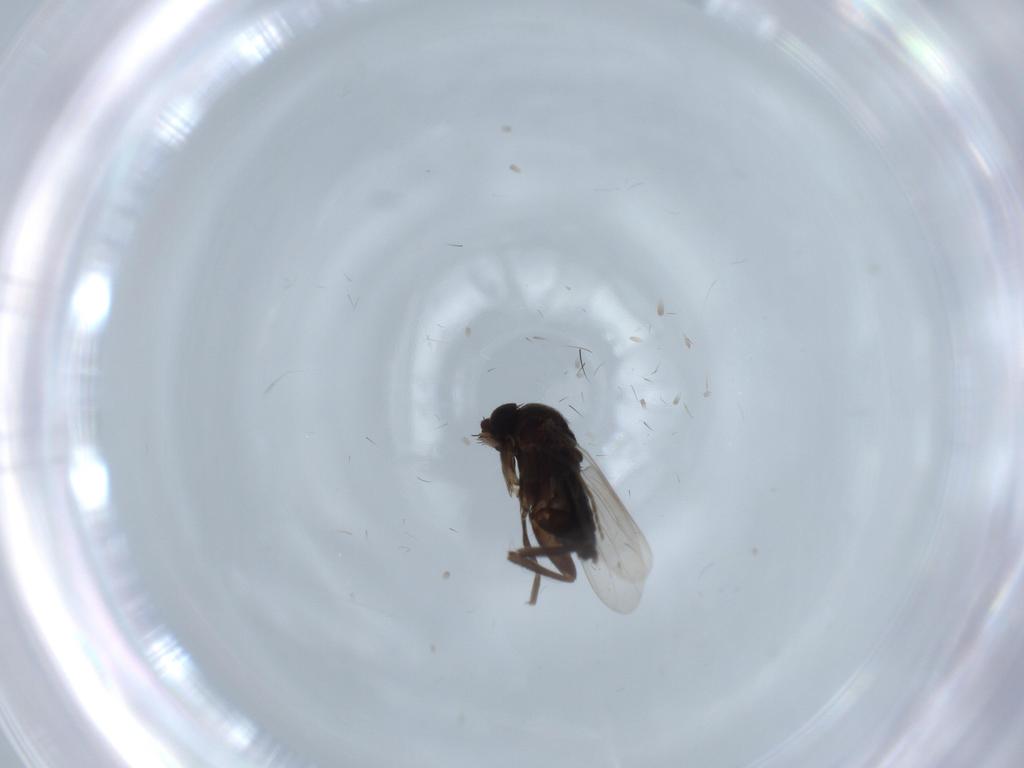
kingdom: Animalia
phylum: Arthropoda
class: Insecta
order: Diptera
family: Phoridae
